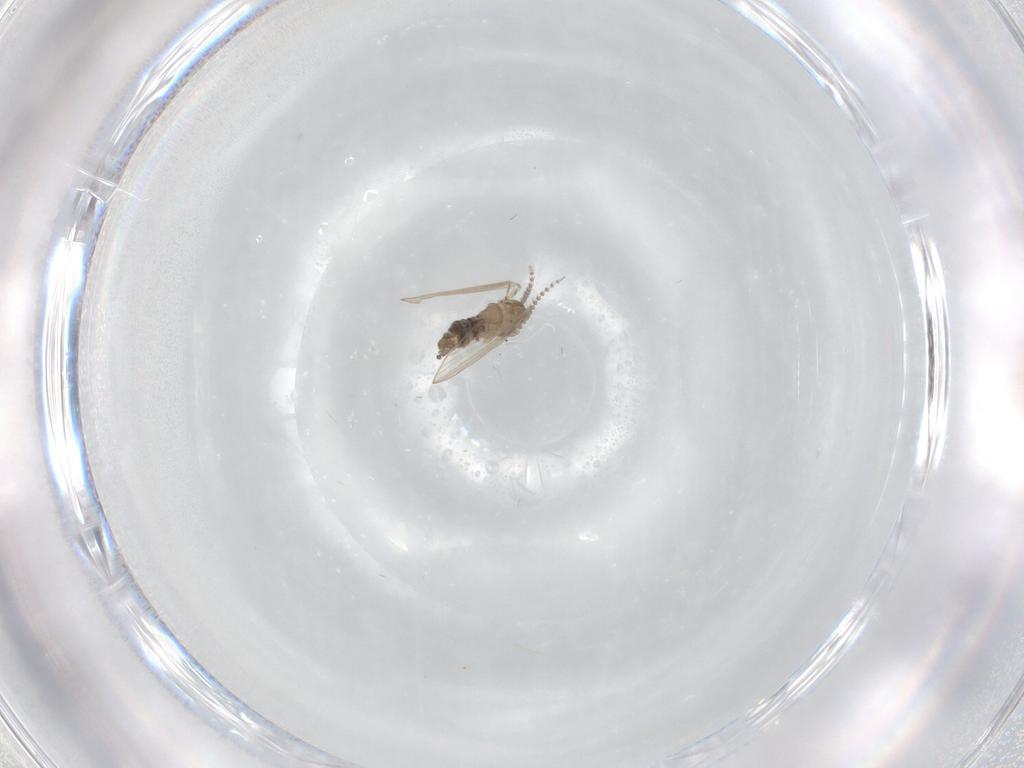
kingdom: Animalia
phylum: Arthropoda
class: Insecta
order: Diptera
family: Psychodidae
